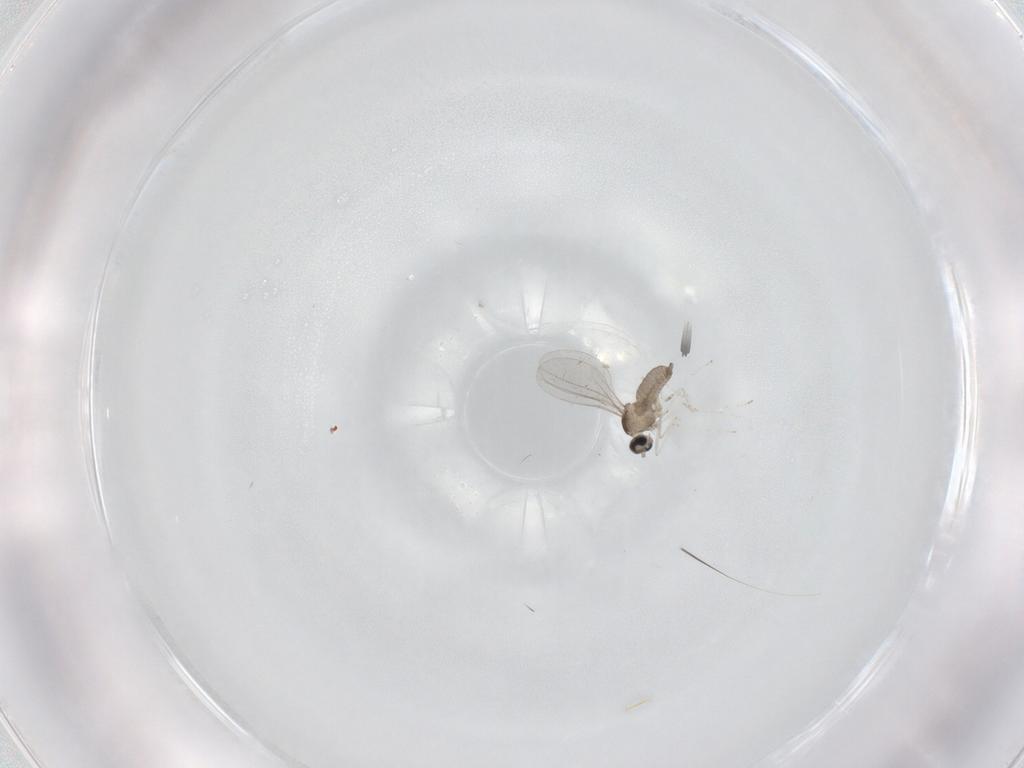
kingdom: Animalia
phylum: Arthropoda
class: Insecta
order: Diptera
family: Cecidomyiidae
